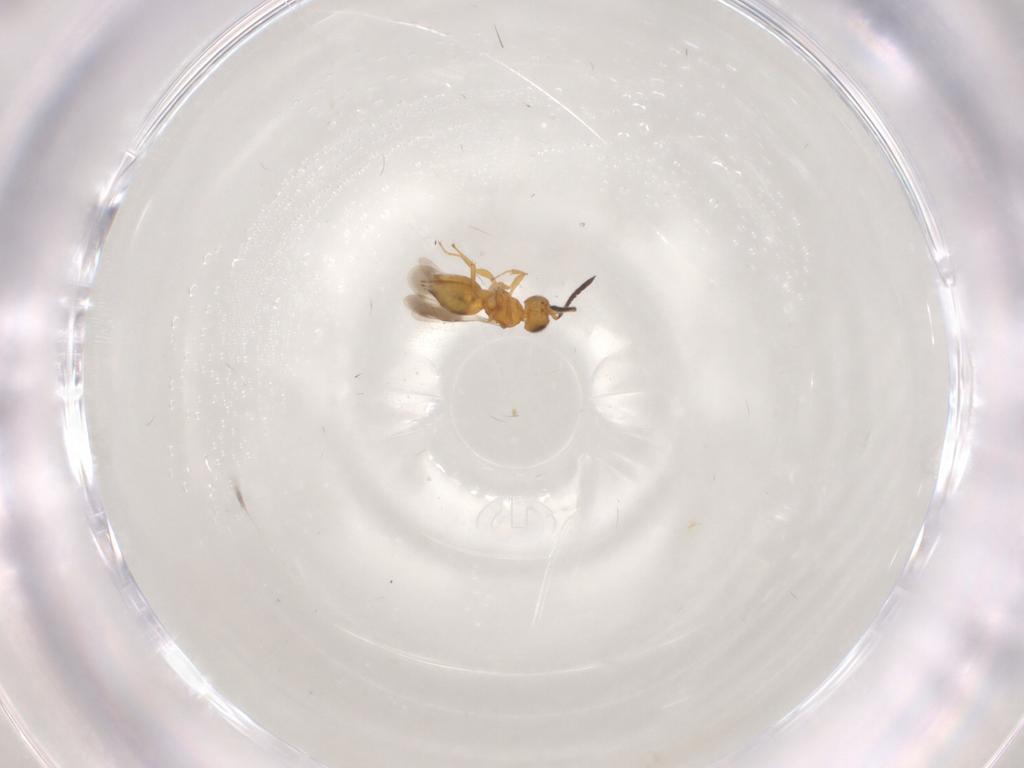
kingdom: Animalia
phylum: Arthropoda
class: Insecta
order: Hymenoptera
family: Ceraphronidae
